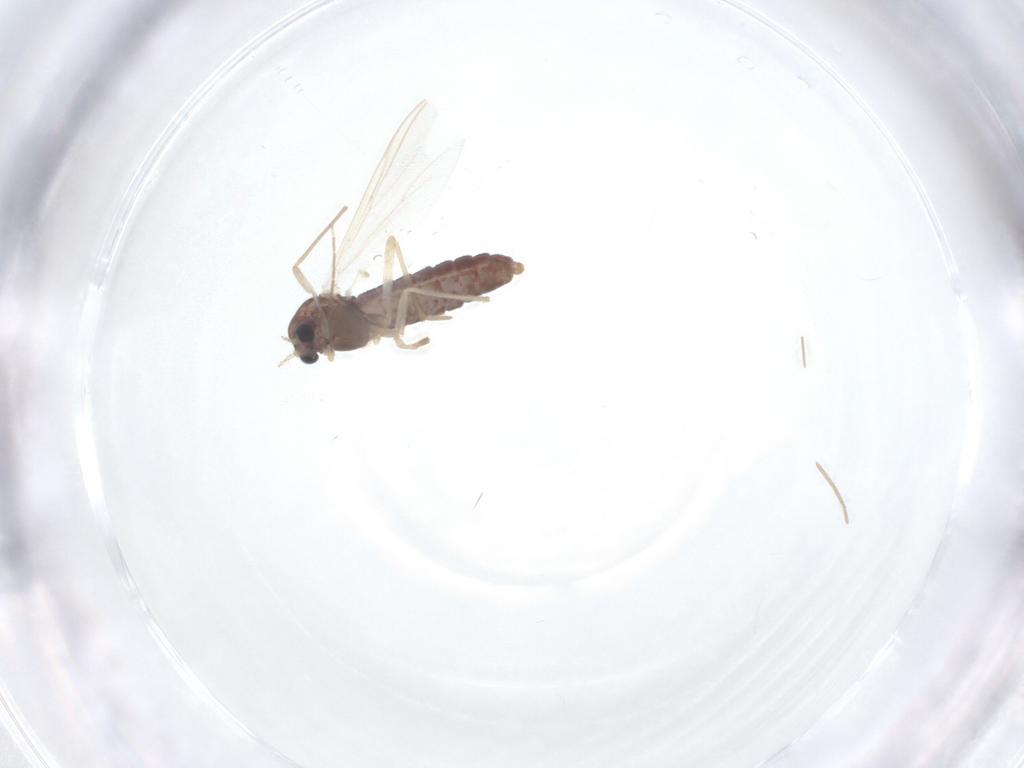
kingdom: Animalia
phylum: Arthropoda
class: Insecta
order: Diptera
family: Chironomidae
